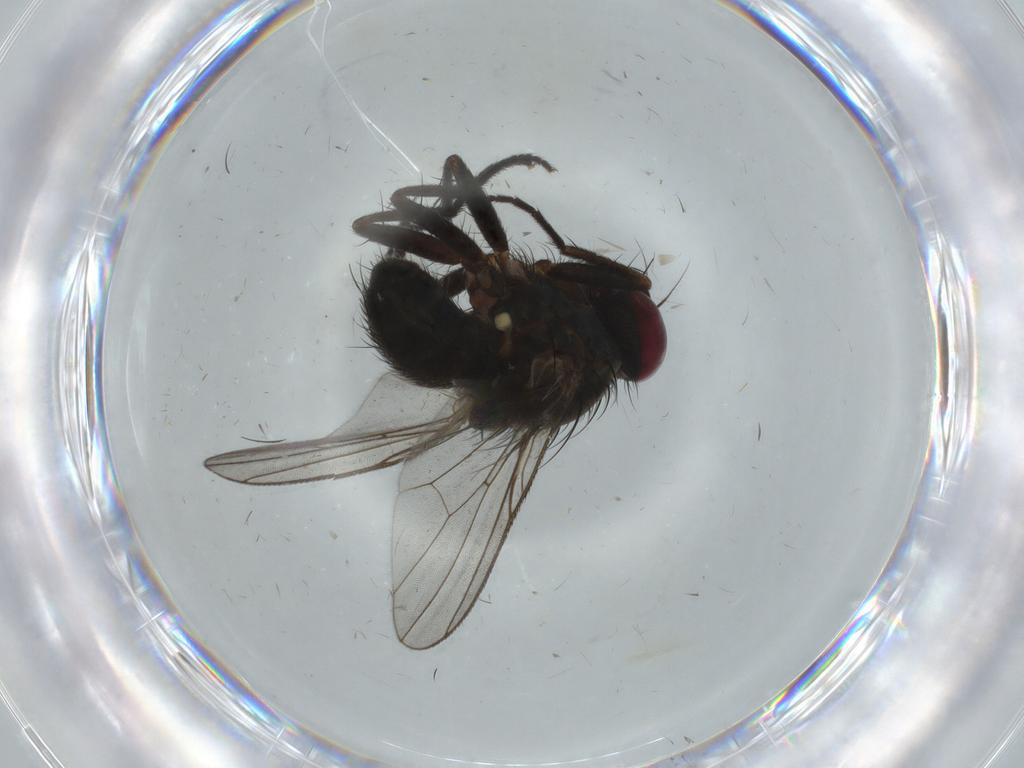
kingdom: Animalia
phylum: Arthropoda
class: Insecta
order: Diptera
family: Muscidae
